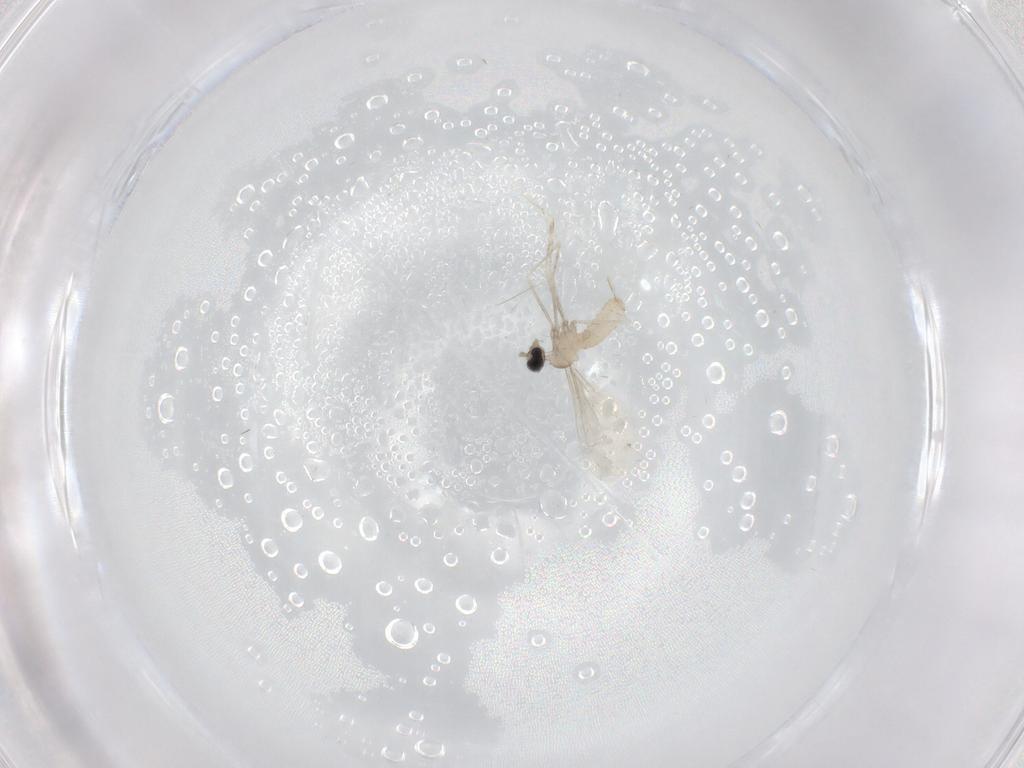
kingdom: Animalia
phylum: Arthropoda
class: Insecta
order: Diptera
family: Cecidomyiidae
